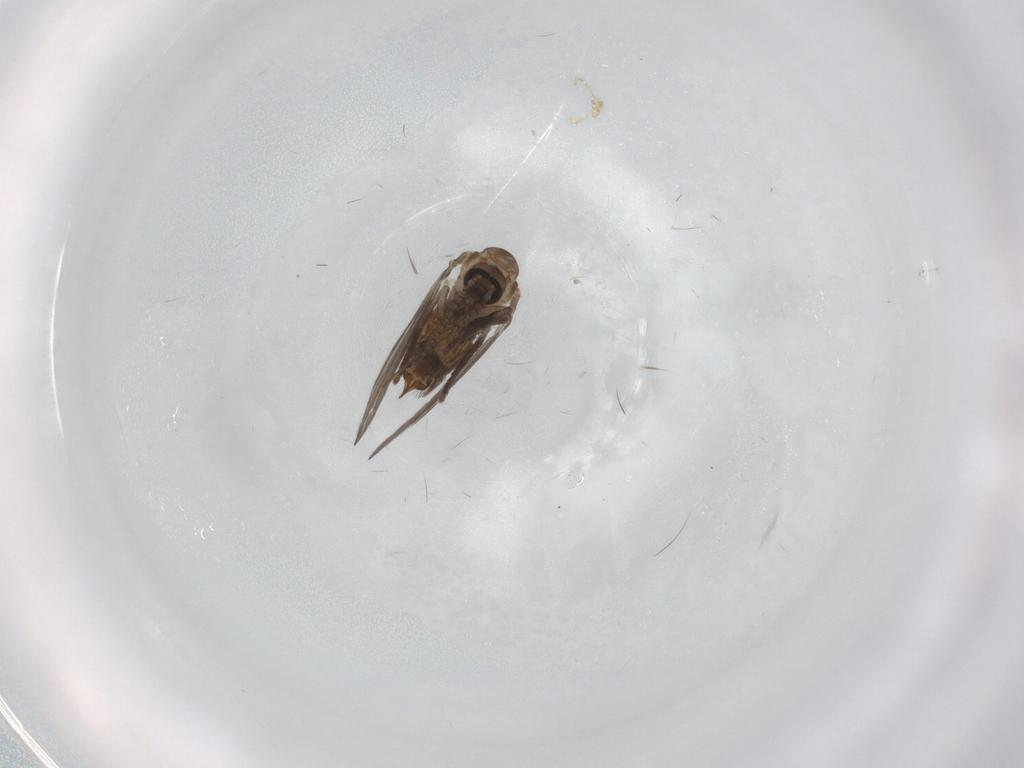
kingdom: Animalia
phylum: Arthropoda
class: Insecta
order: Diptera
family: Psychodidae
